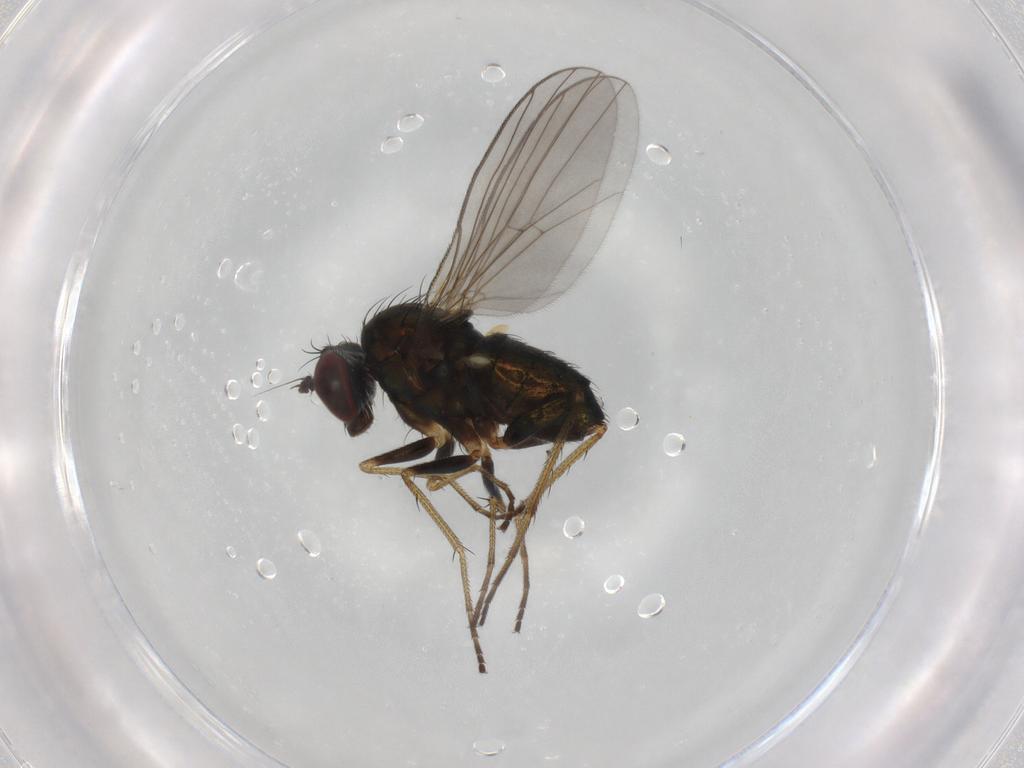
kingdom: Animalia
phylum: Arthropoda
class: Insecta
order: Diptera
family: Dolichopodidae
